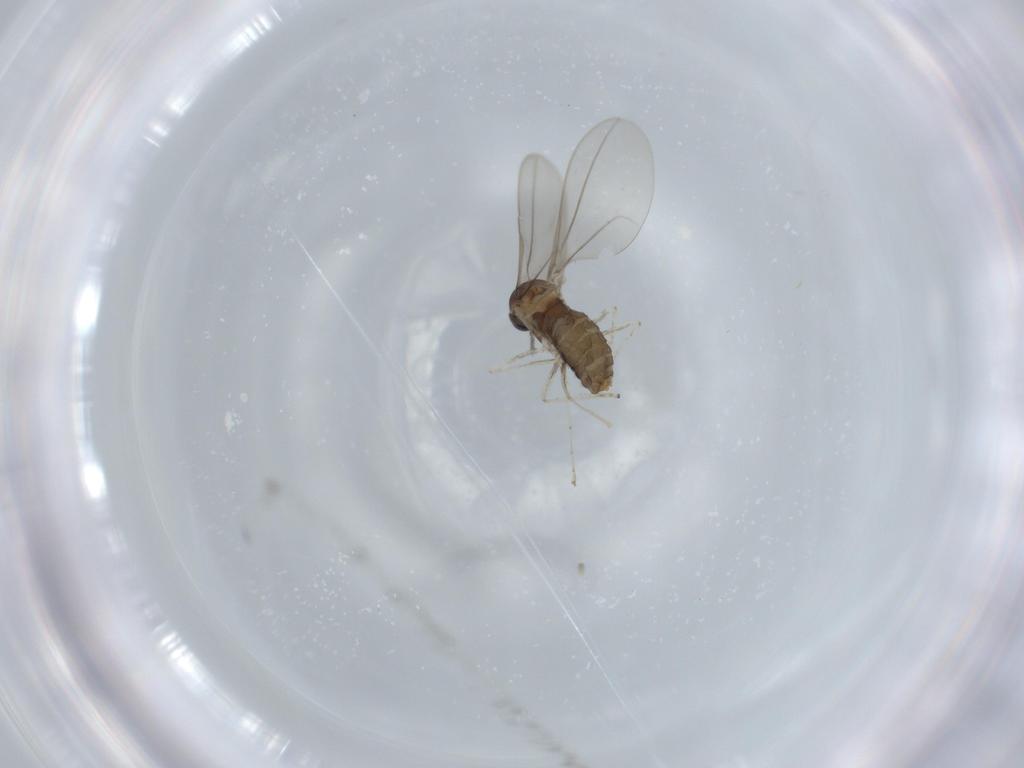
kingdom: Animalia
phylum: Arthropoda
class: Insecta
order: Diptera
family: Cecidomyiidae
